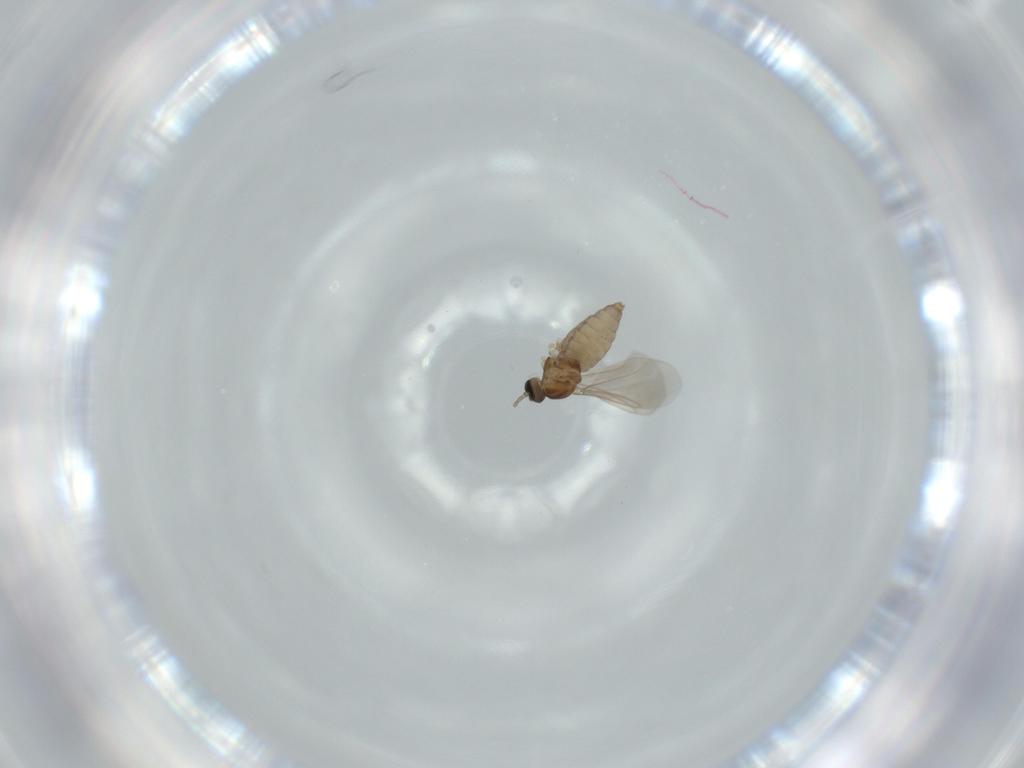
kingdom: Animalia
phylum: Arthropoda
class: Insecta
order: Diptera
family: Cecidomyiidae
